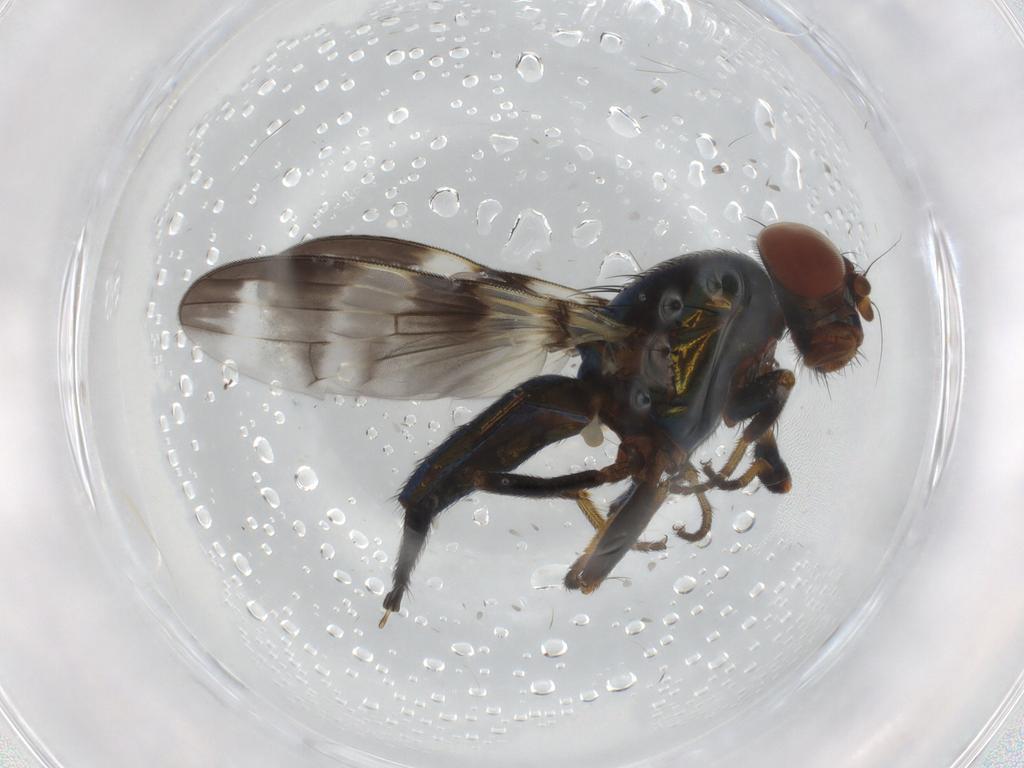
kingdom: Animalia
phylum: Arthropoda
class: Insecta
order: Diptera
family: Ulidiidae
